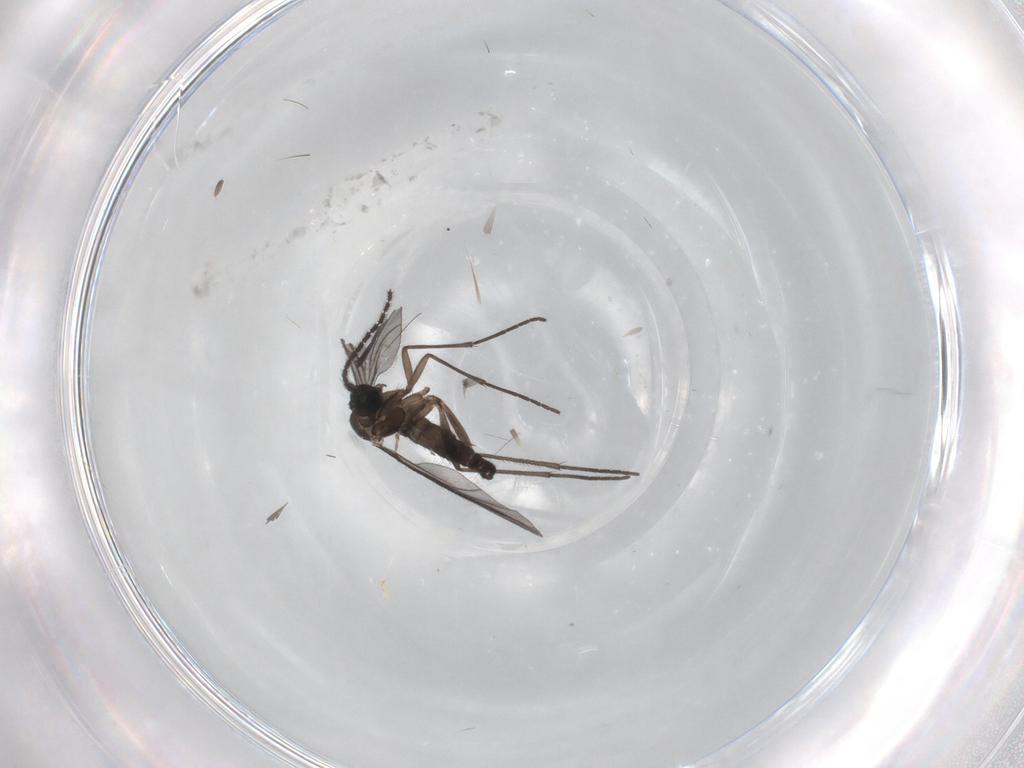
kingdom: Animalia
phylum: Arthropoda
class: Insecta
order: Diptera
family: Sciaridae
